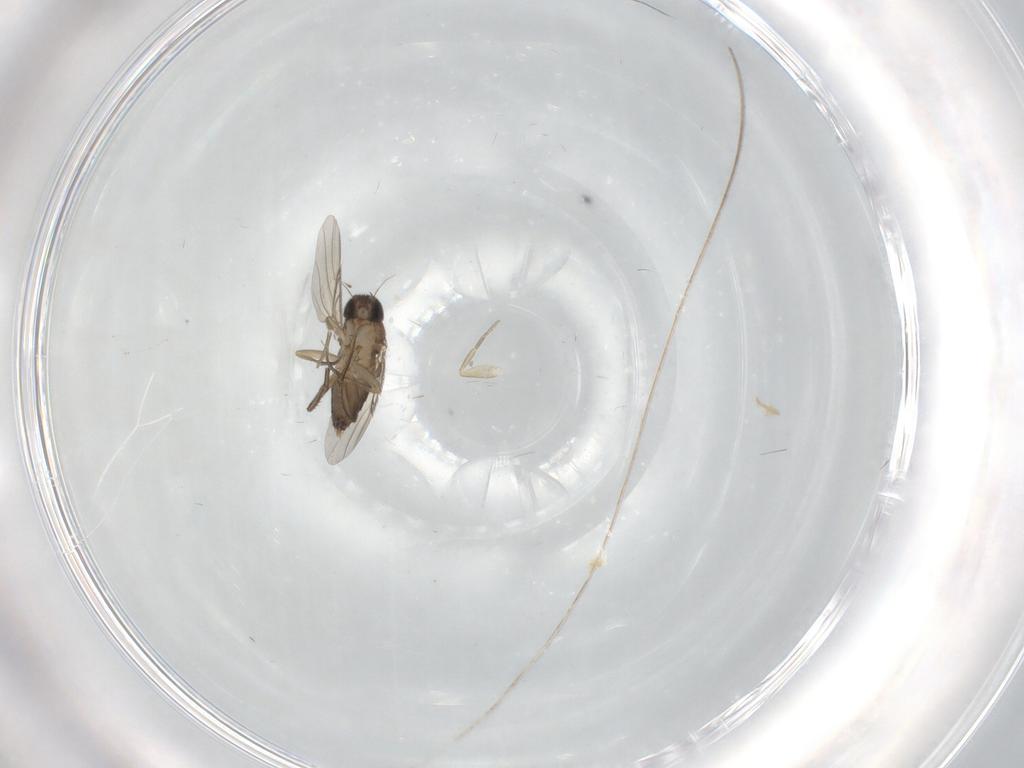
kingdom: Animalia
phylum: Arthropoda
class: Insecta
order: Diptera
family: Phoridae
